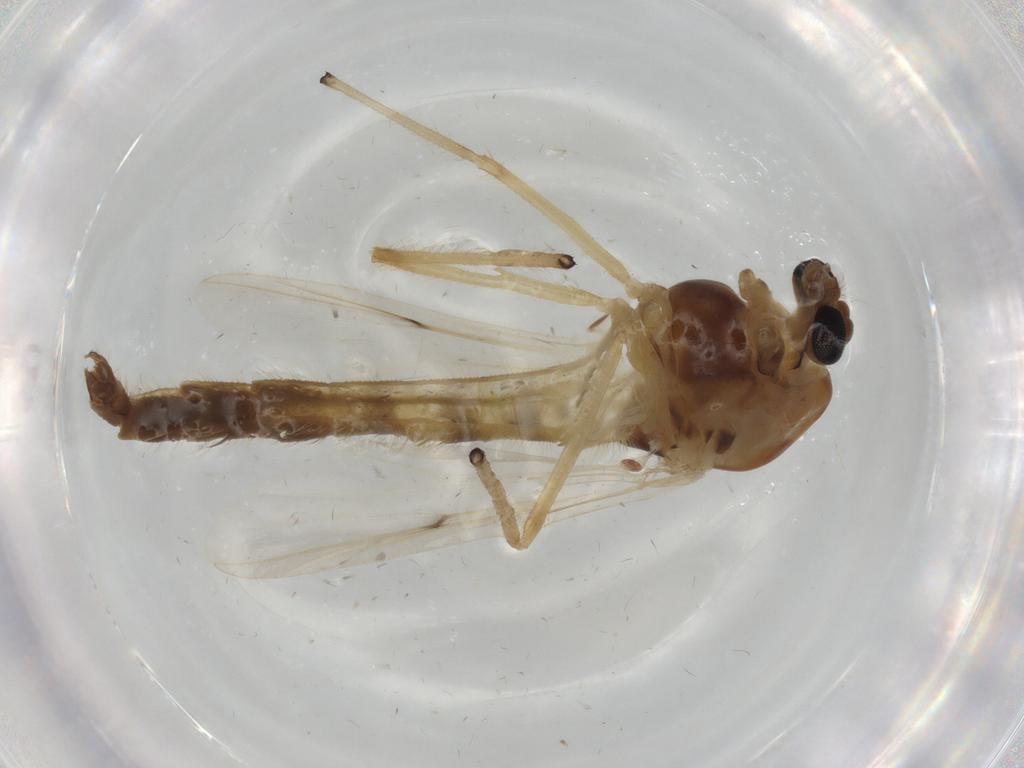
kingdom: Animalia
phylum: Arthropoda
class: Insecta
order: Diptera
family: Chironomidae
